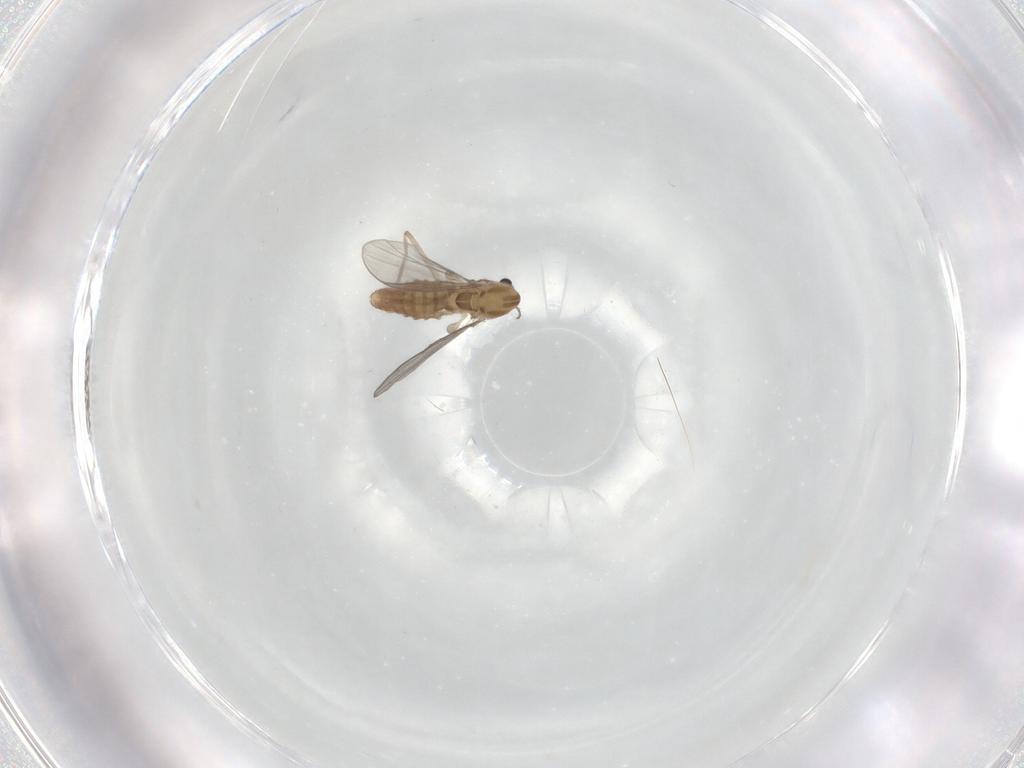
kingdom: Animalia
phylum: Arthropoda
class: Insecta
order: Diptera
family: Chironomidae
